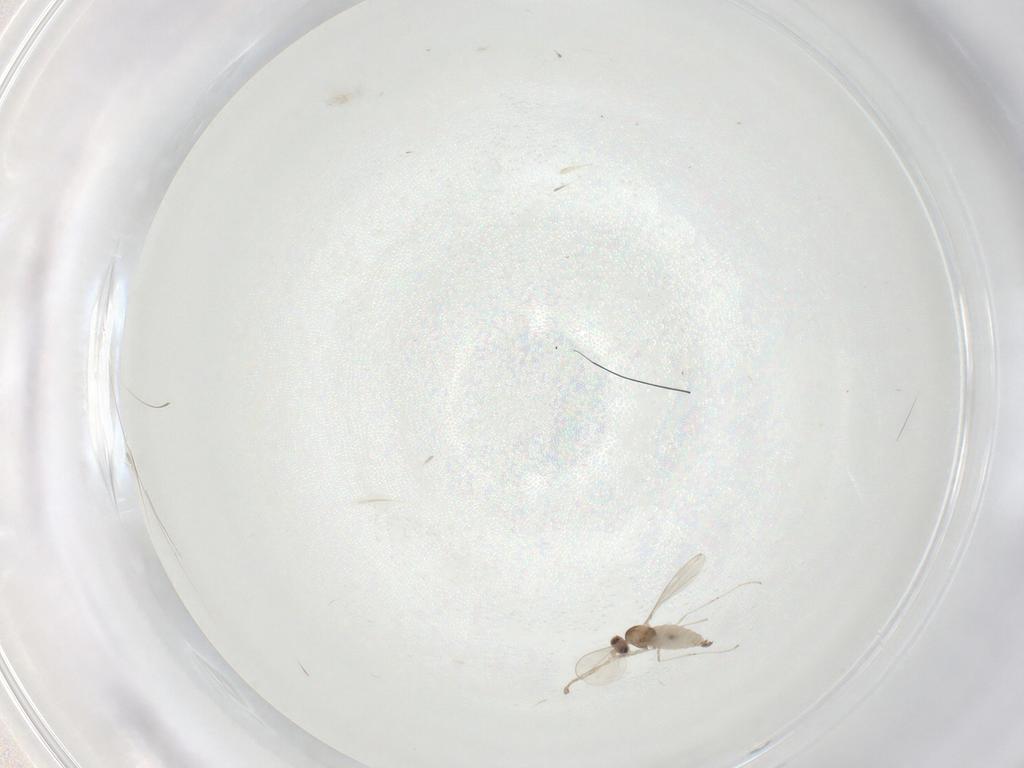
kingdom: Animalia
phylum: Arthropoda
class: Insecta
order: Diptera
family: Cecidomyiidae
